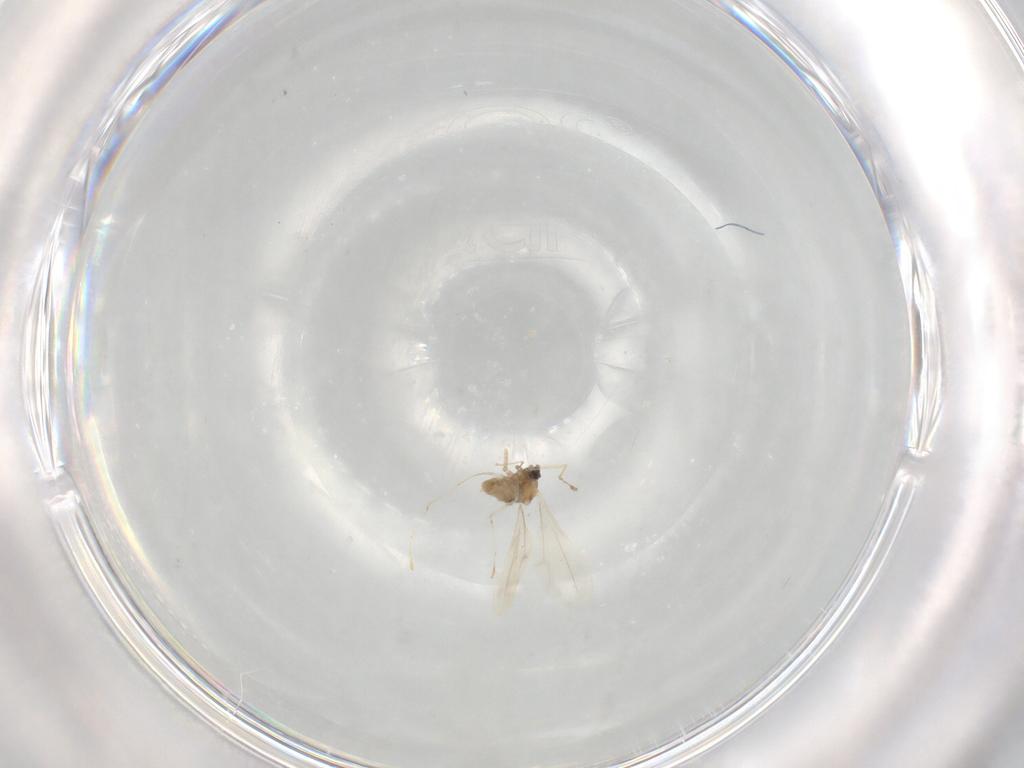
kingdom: Animalia
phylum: Arthropoda
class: Insecta
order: Diptera
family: Cecidomyiidae
